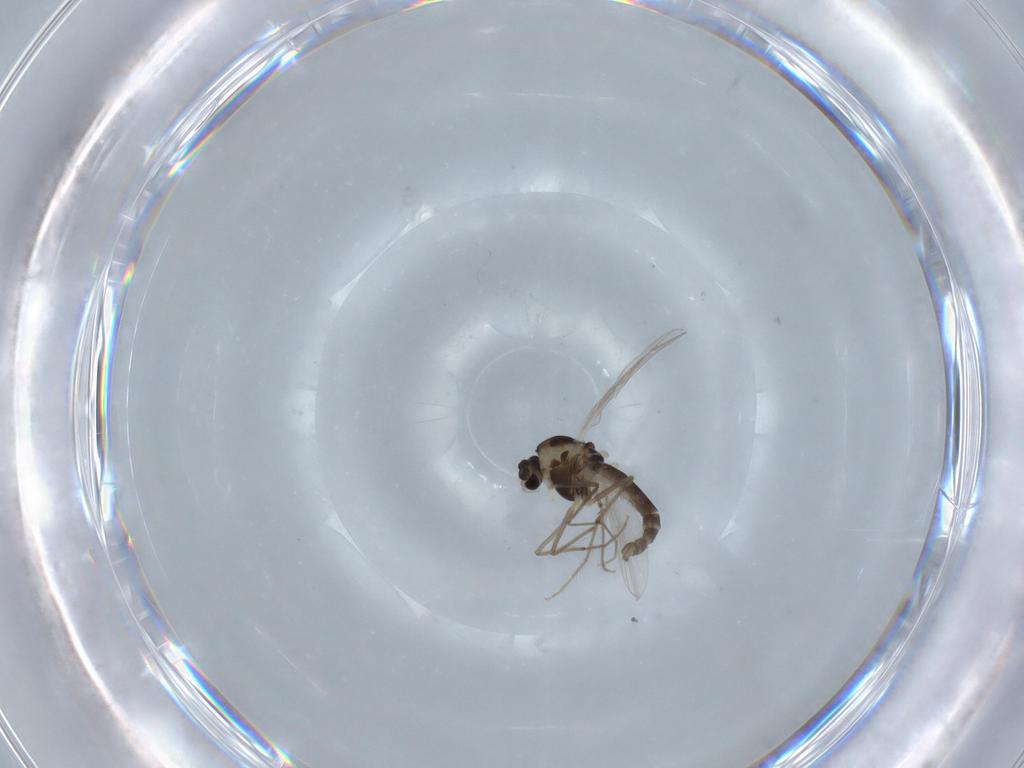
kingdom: Animalia
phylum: Arthropoda
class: Insecta
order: Diptera
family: Chironomidae
